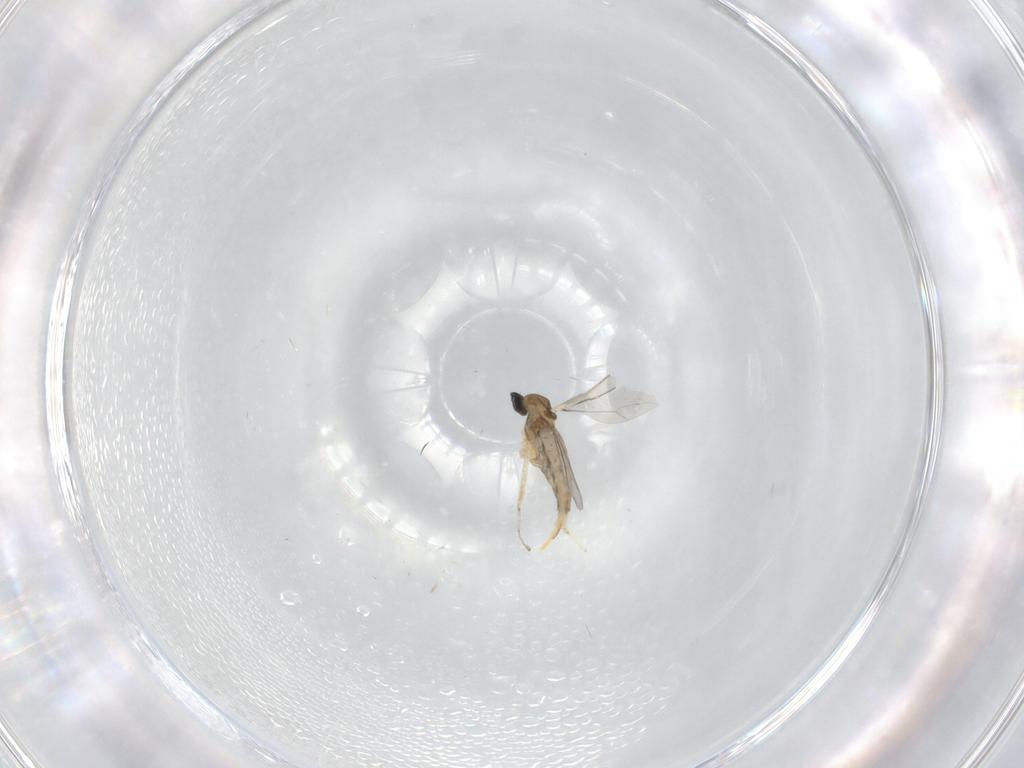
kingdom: Animalia
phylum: Arthropoda
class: Insecta
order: Diptera
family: Cecidomyiidae
